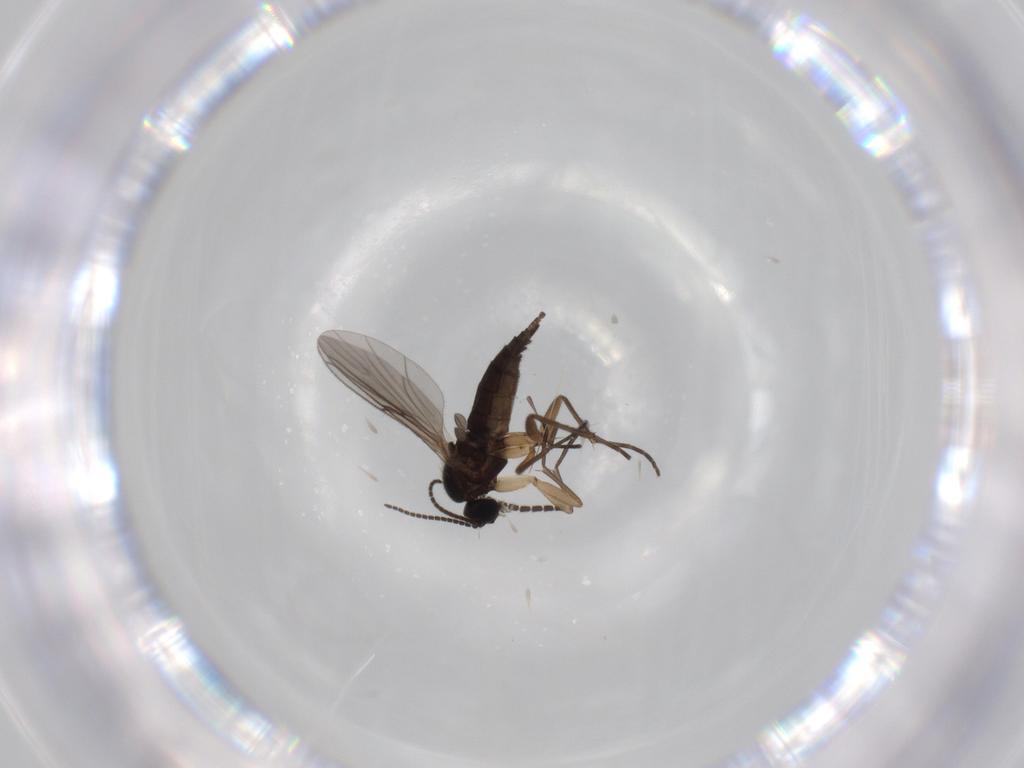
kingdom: Animalia
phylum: Arthropoda
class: Insecta
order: Diptera
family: Sciaridae
